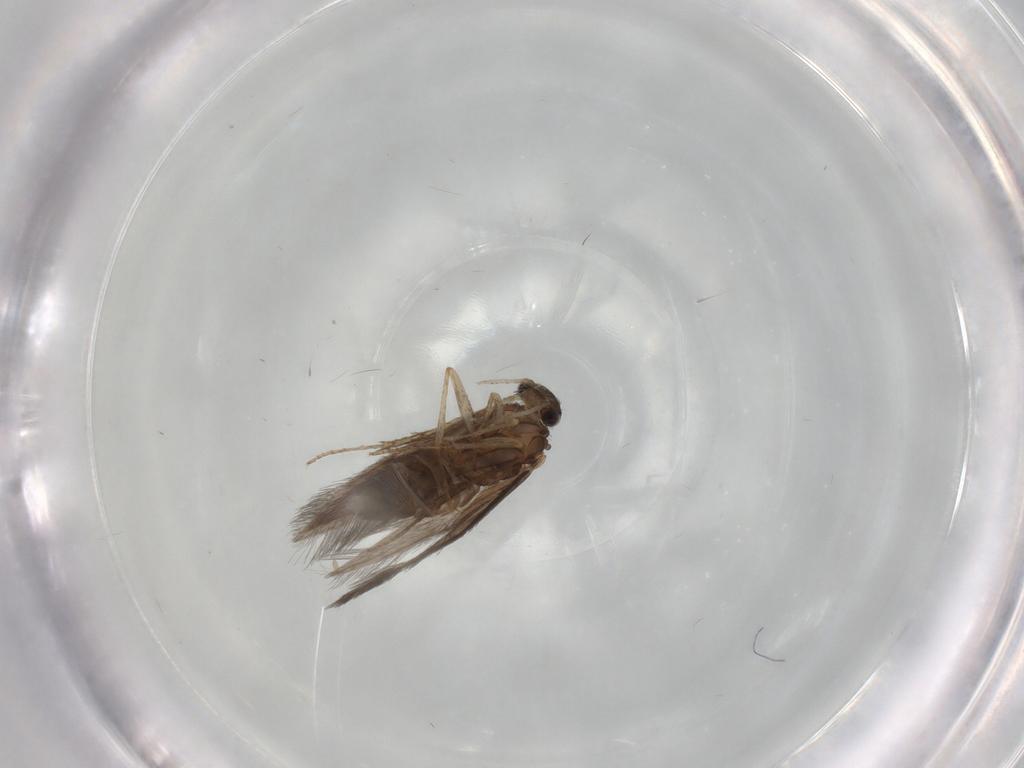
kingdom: Animalia
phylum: Arthropoda
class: Insecta
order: Trichoptera
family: Hydroptilidae
